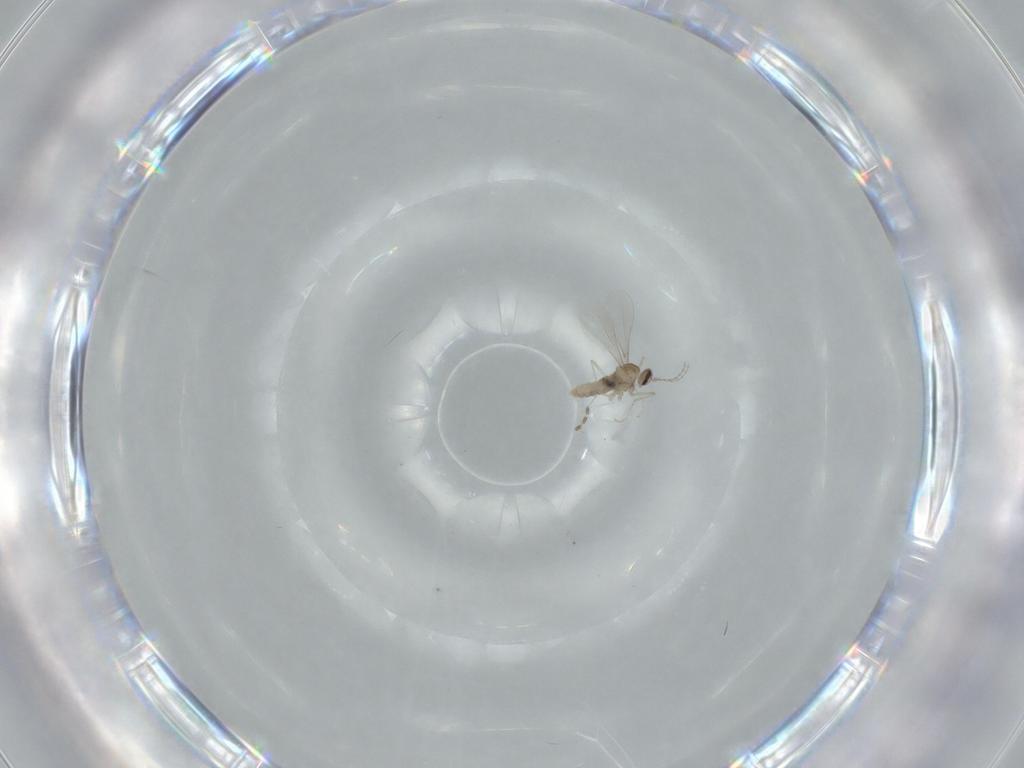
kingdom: Animalia
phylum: Arthropoda
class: Insecta
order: Diptera
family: Cecidomyiidae
